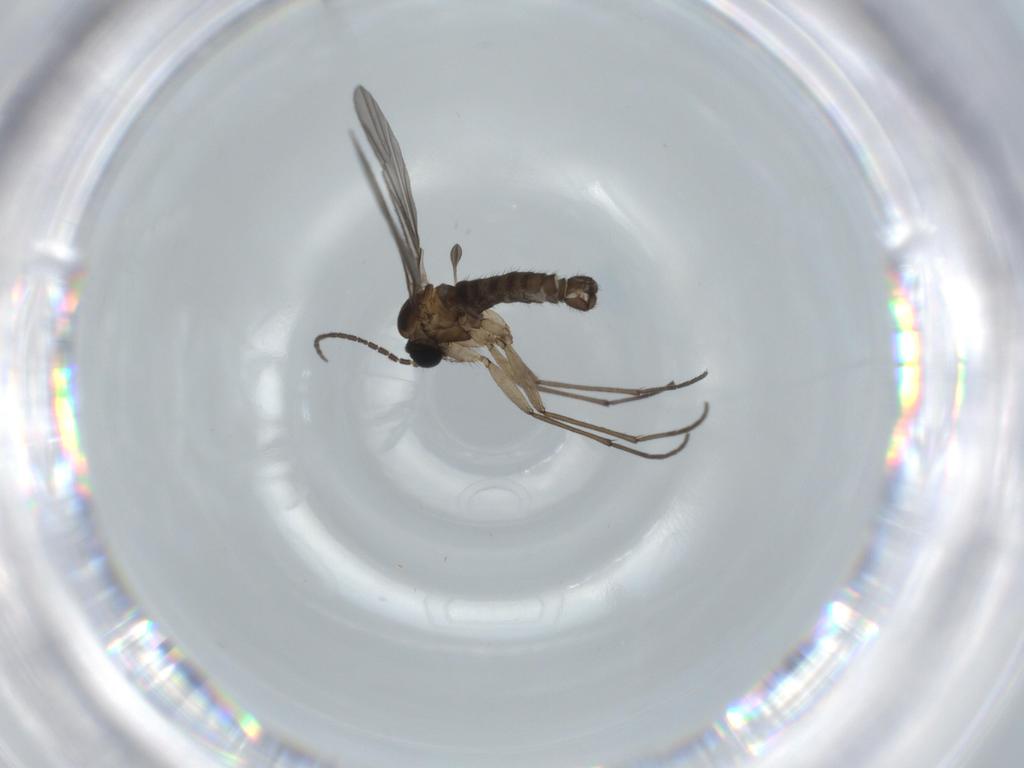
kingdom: Animalia
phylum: Arthropoda
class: Insecta
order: Diptera
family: Sciaridae
